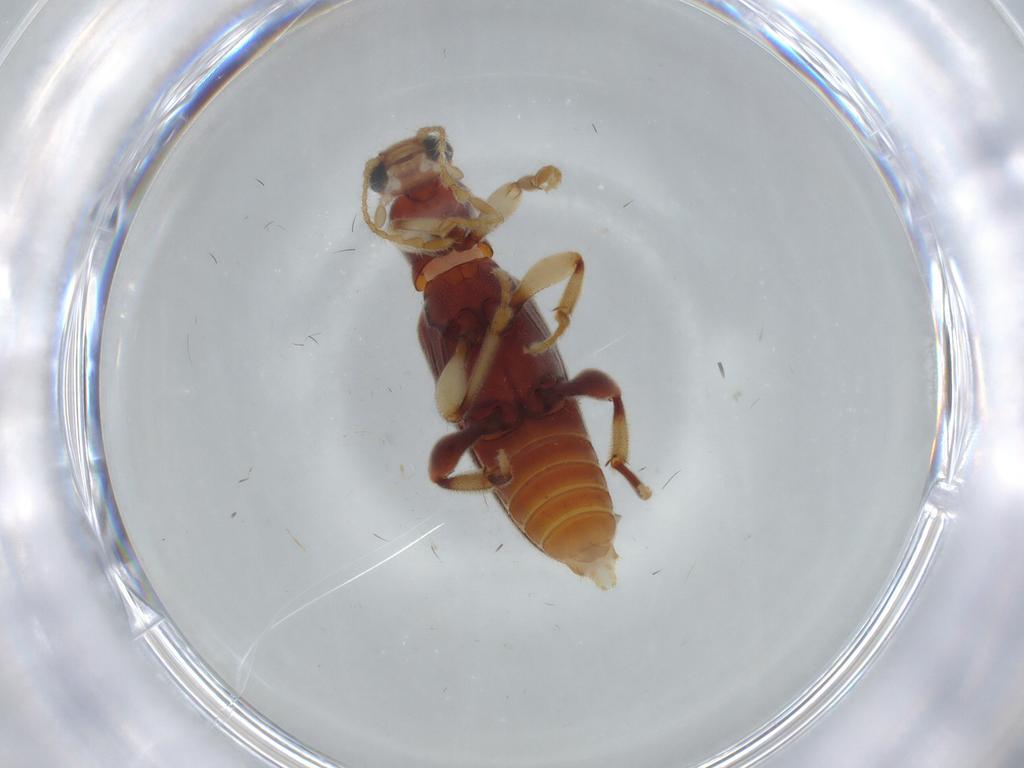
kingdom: Animalia
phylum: Arthropoda
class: Insecta
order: Coleoptera
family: Anthicidae
